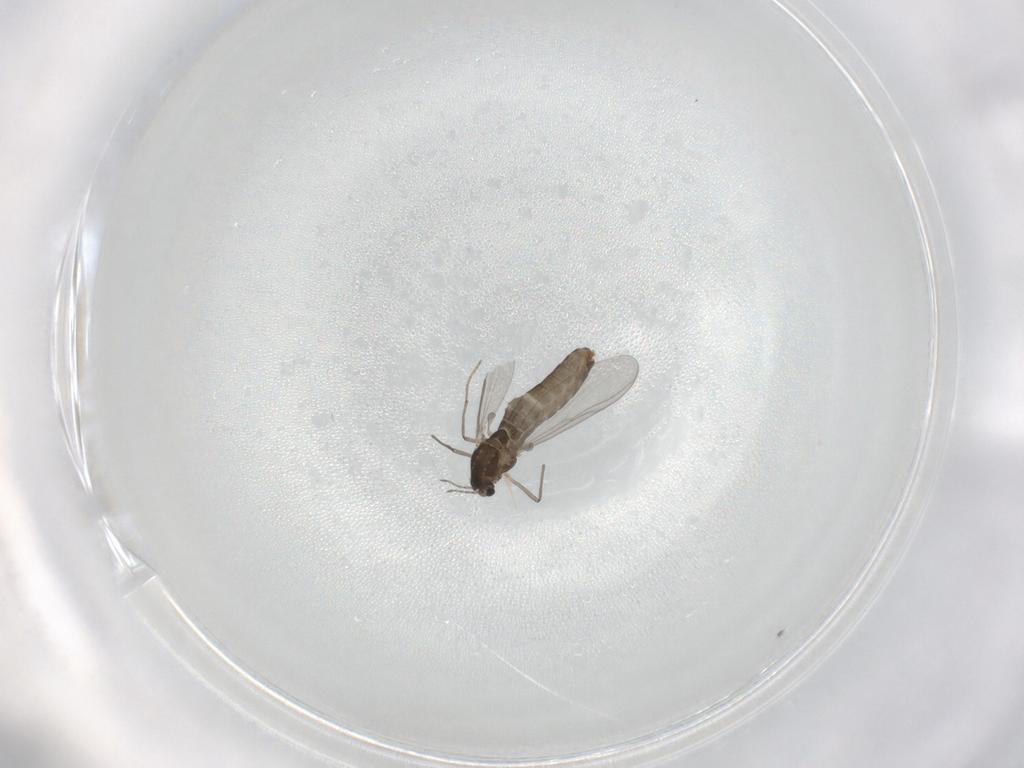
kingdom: Animalia
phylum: Arthropoda
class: Insecta
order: Diptera
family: Chironomidae
